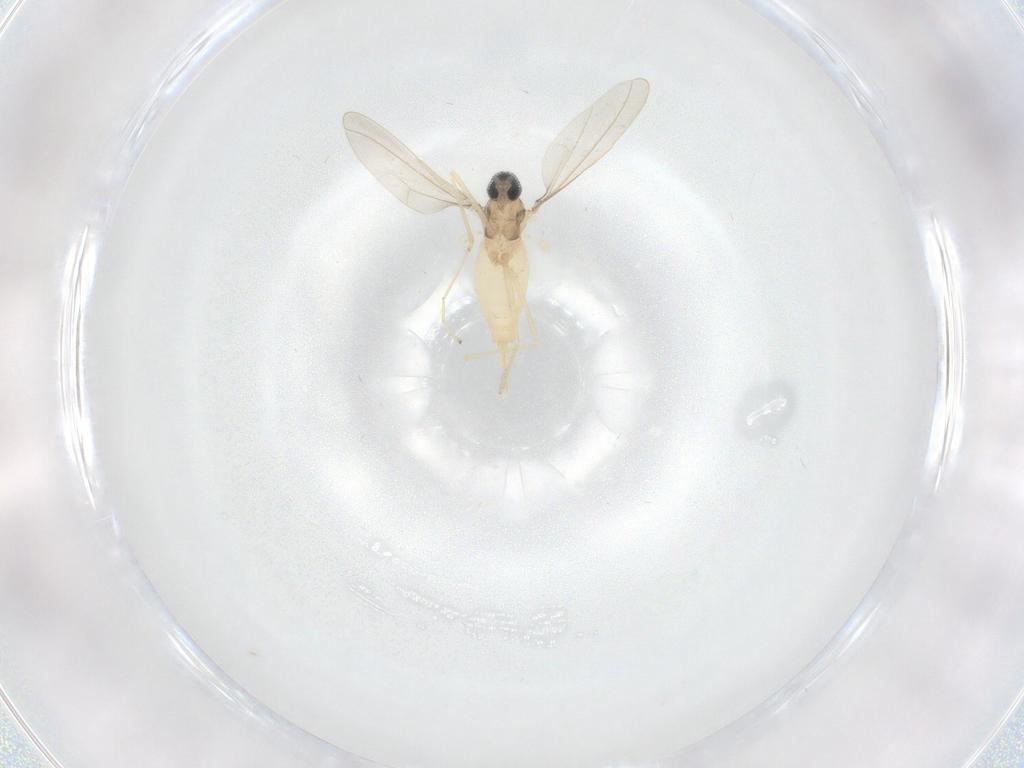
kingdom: Animalia
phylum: Arthropoda
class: Insecta
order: Diptera
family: Cecidomyiidae
